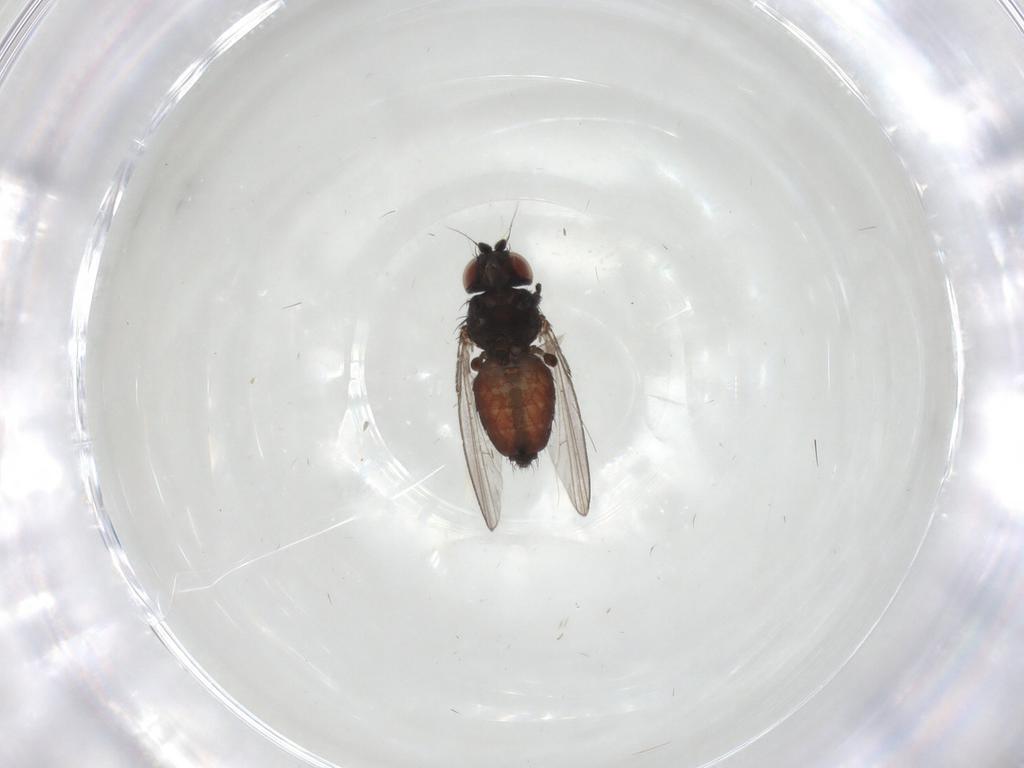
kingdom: Animalia
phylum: Arthropoda
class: Insecta
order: Diptera
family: Milichiidae
